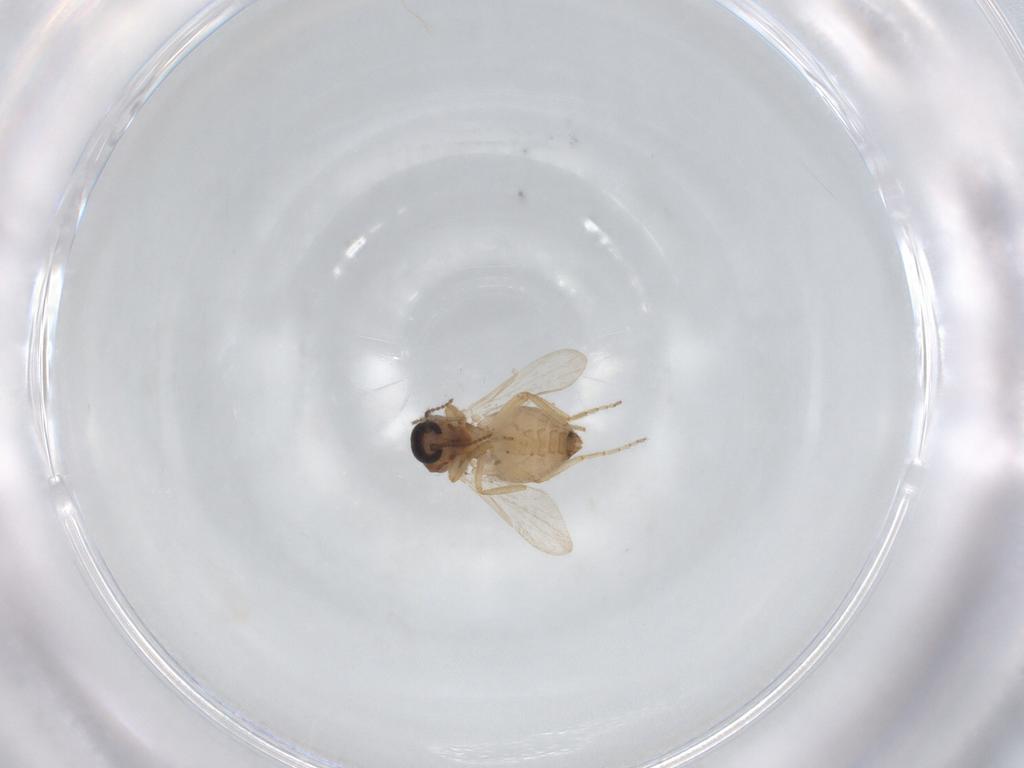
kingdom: Animalia
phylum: Arthropoda
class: Insecta
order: Diptera
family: Ceratopogonidae
